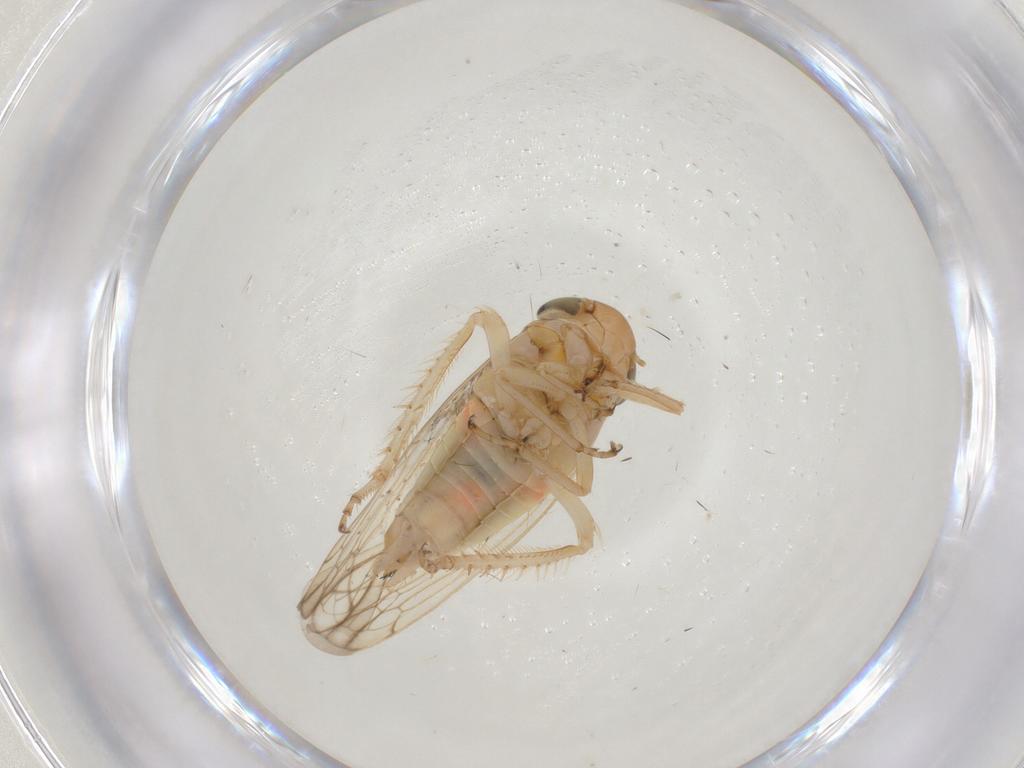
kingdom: Animalia
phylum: Arthropoda
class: Insecta
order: Hemiptera
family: Cicadellidae
